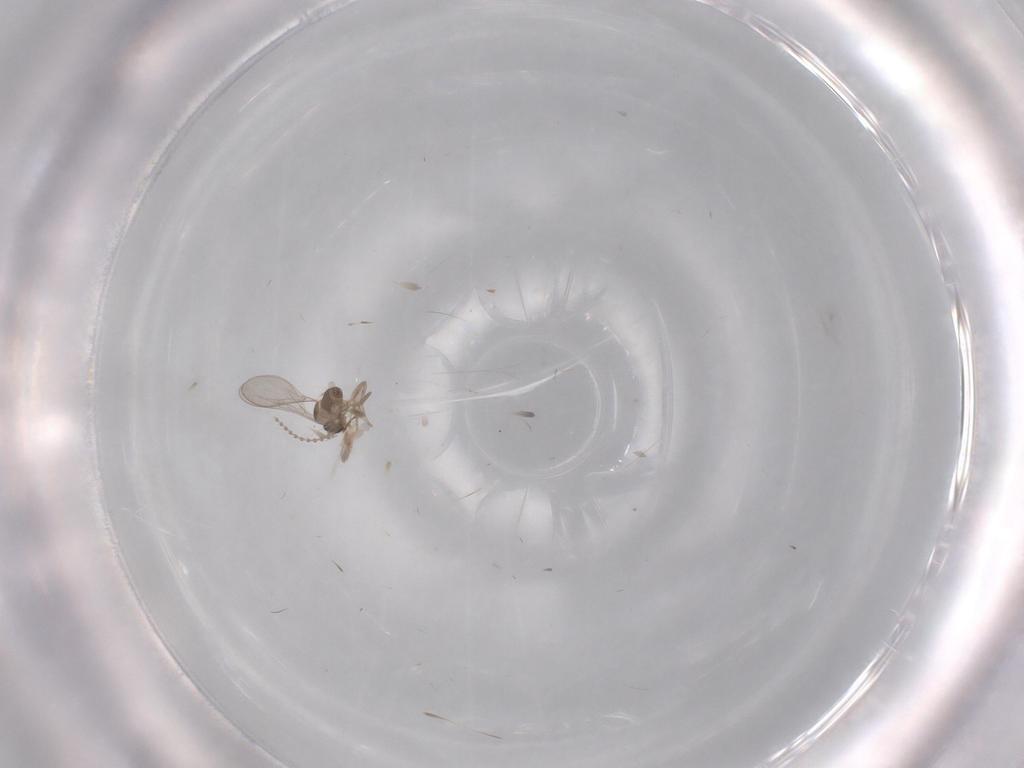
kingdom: Animalia
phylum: Arthropoda
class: Insecta
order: Diptera
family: Cecidomyiidae
